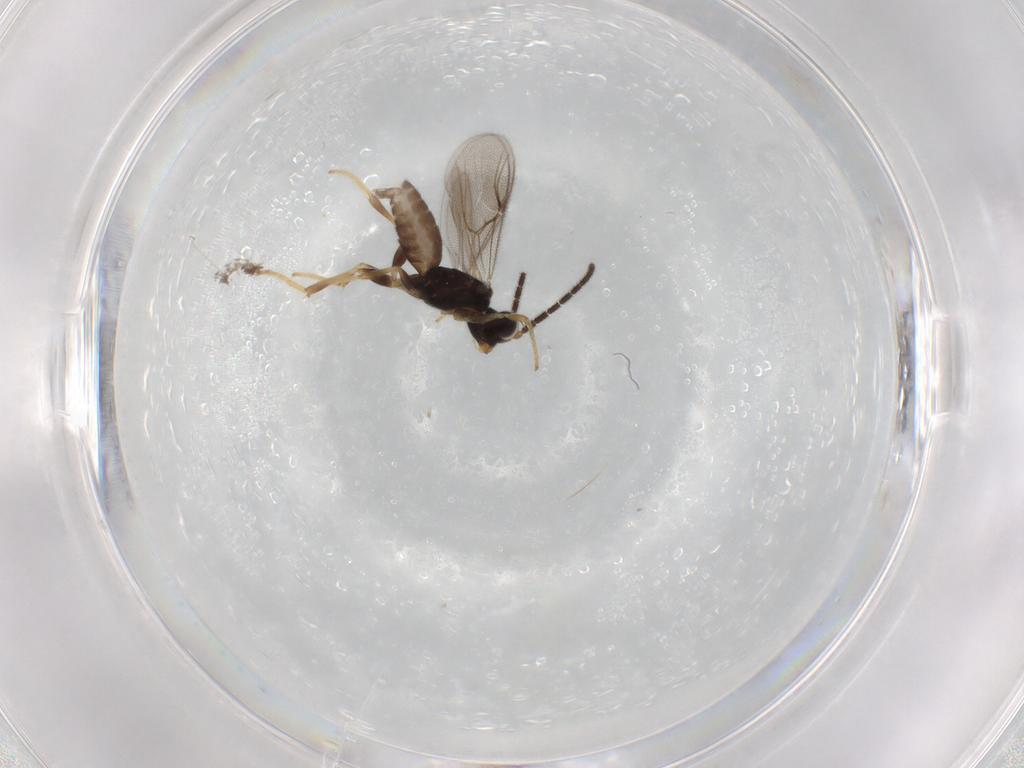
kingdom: Animalia
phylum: Arthropoda
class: Insecta
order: Hymenoptera
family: Dryinidae
